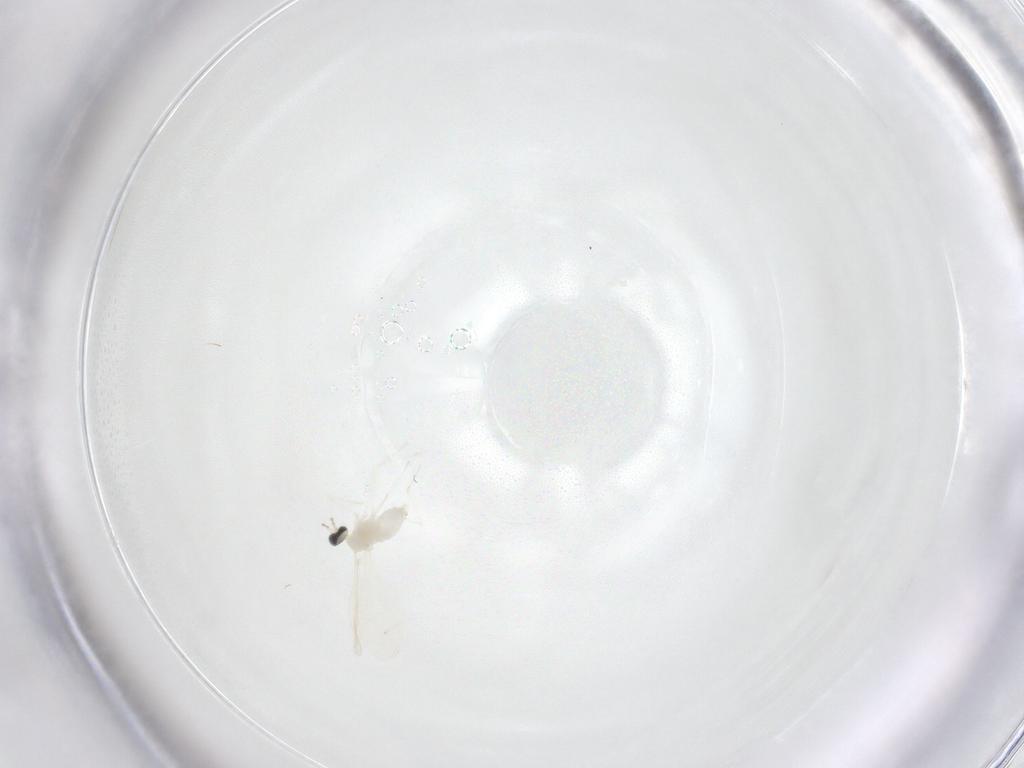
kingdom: Animalia
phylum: Arthropoda
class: Insecta
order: Diptera
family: Cecidomyiidae
